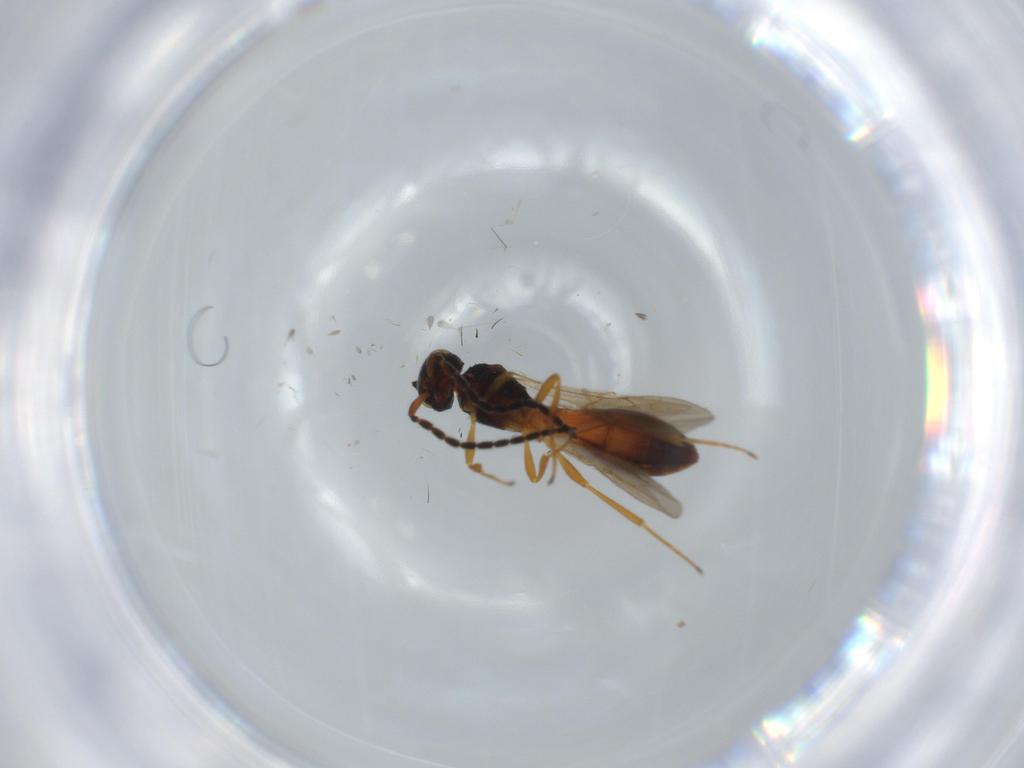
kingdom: Animalia
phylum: Arthropoda
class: Insecta
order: Hymenoptera
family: Scelionidae
